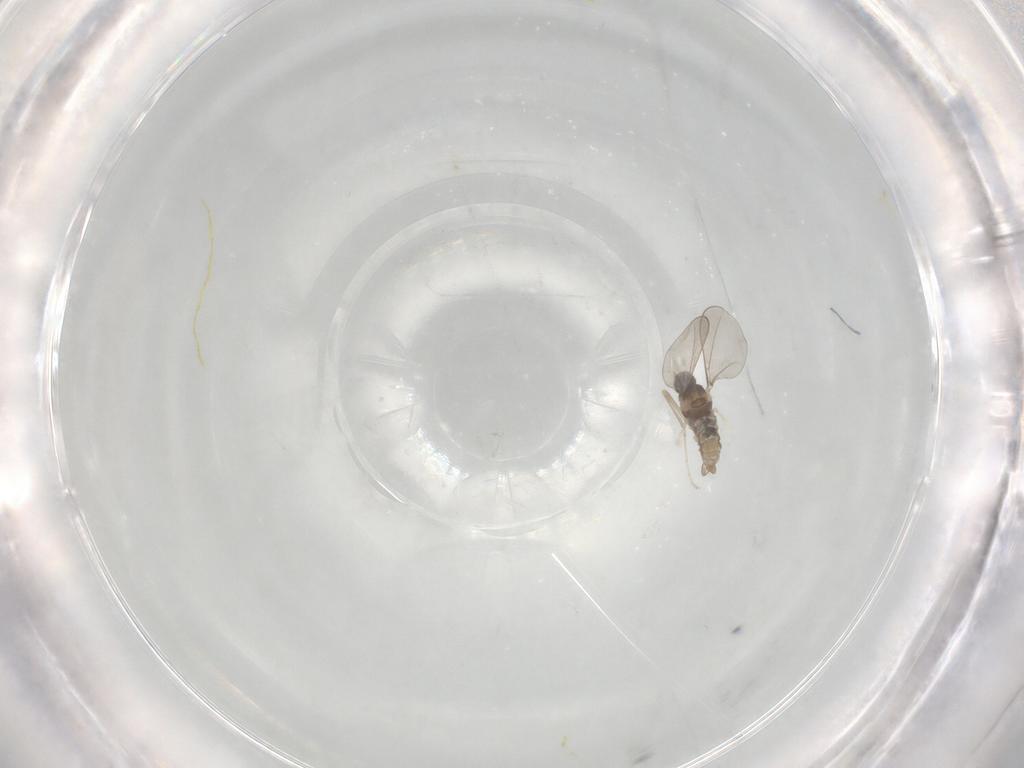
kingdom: Animalia
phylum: Arthropoda
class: Insecta
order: Diptera
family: Cecidomyiidae
